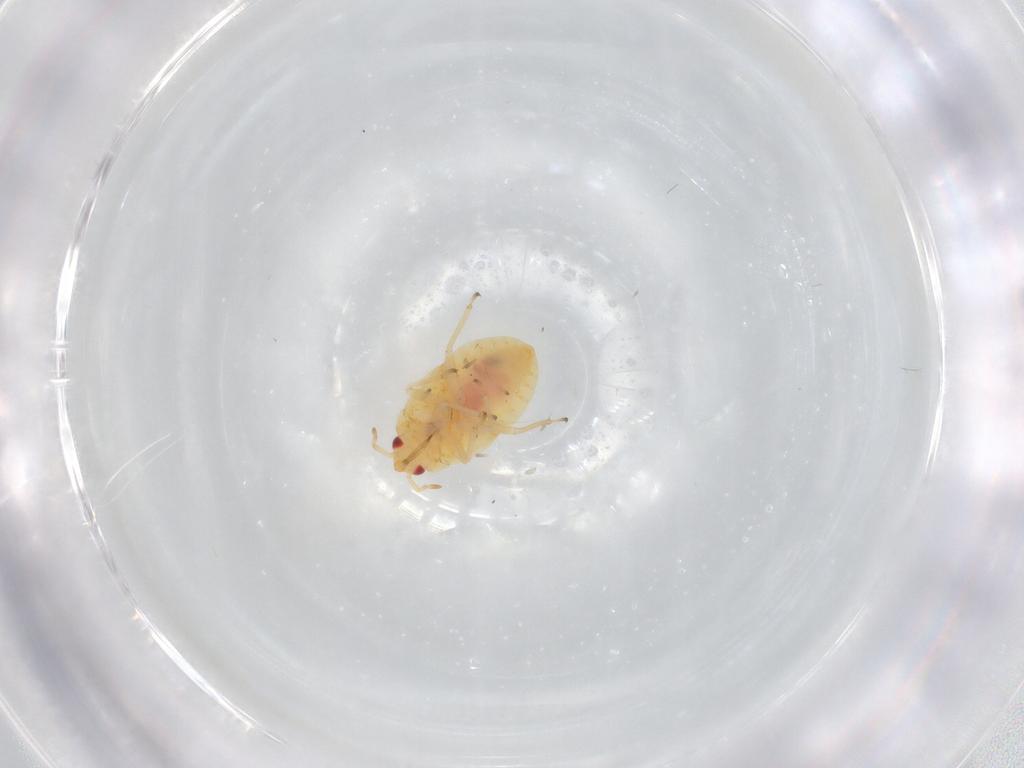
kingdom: Animalia
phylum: Arthropoda
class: Insecta
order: Hemiptera
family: Anthocoridae
